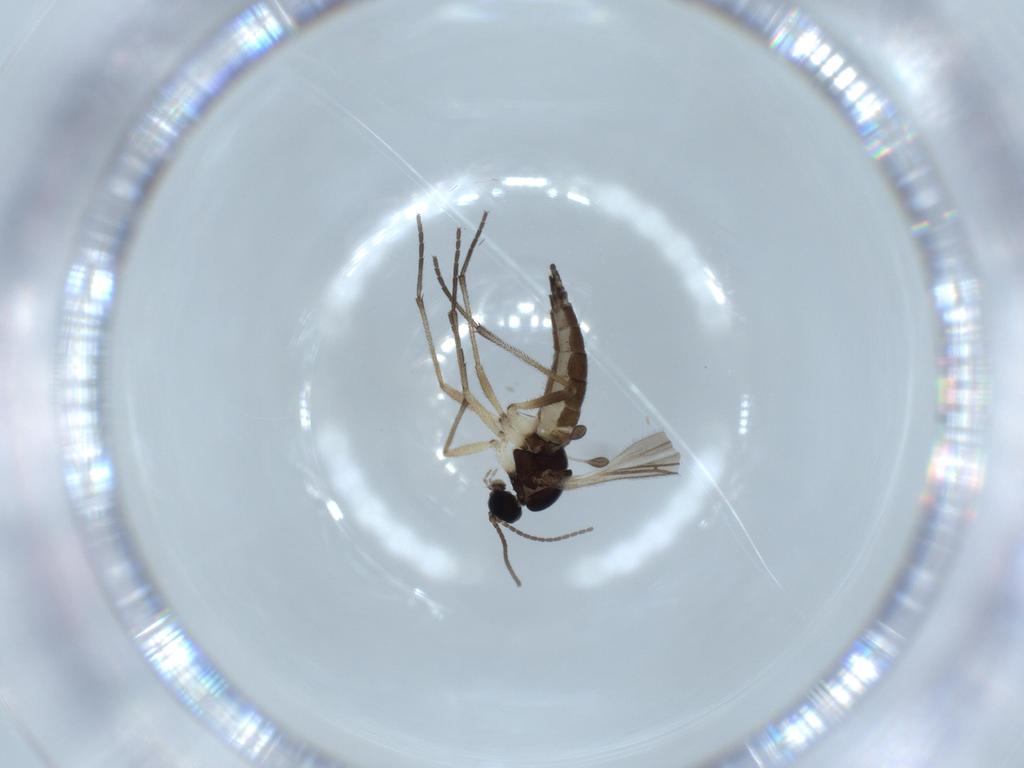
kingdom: Animalia
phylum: Arthropoda
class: Insecta
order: Diptera
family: Sciaridae
